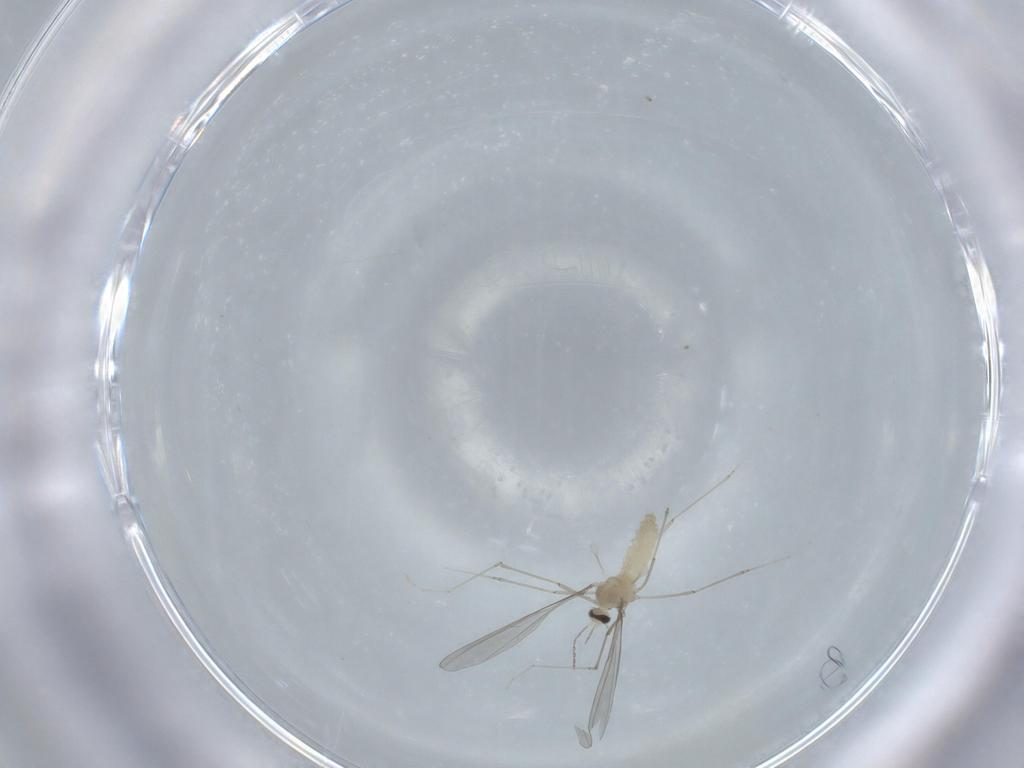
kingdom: Animalia
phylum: Arthropoda
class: Insecta
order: Diptera
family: Cecidomyiidae
